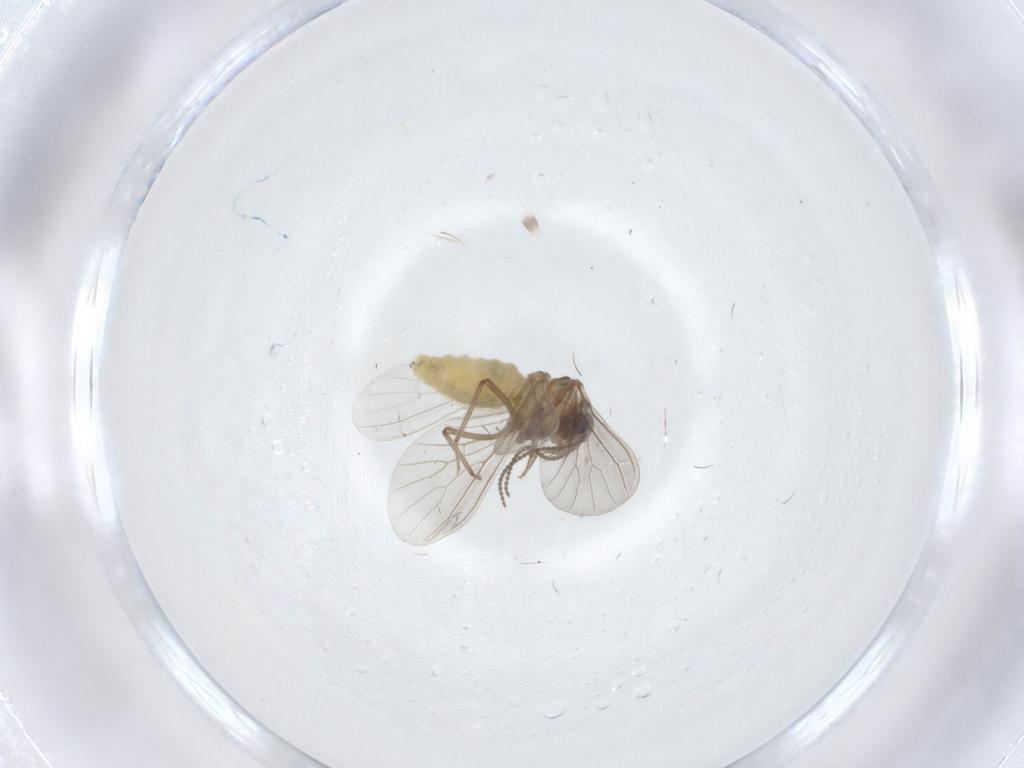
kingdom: Animalia
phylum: Arthropoda
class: Insecta
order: Neuroptera
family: Coniopterygidae
